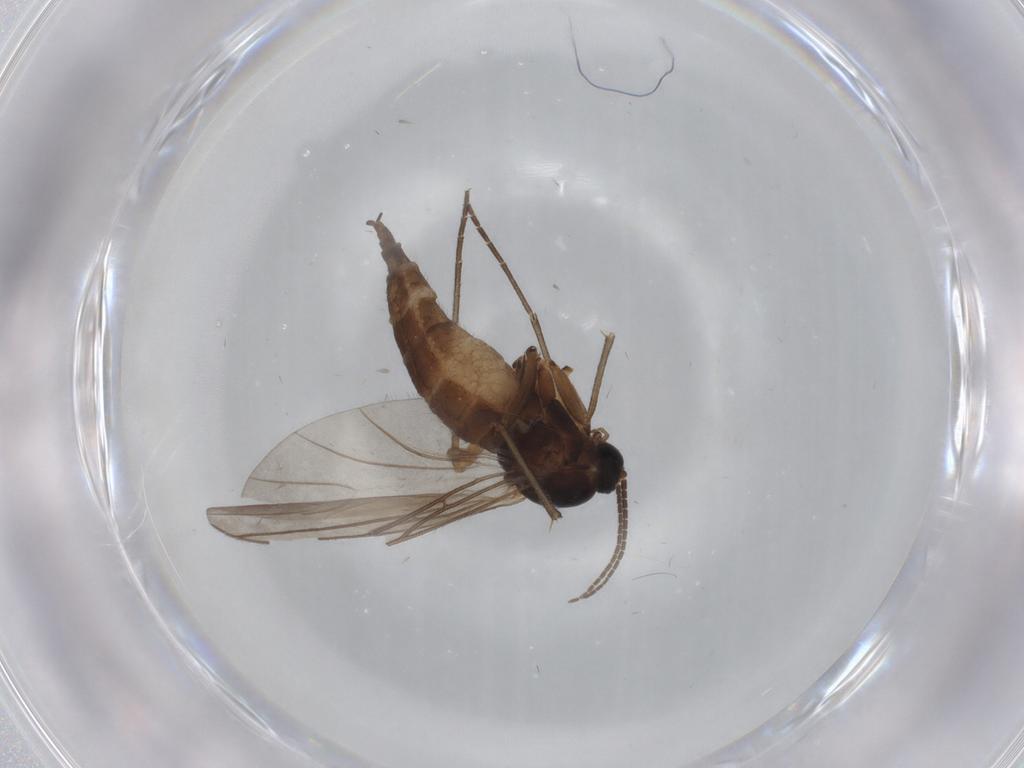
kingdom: Animalia
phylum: Arthropoda
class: Insecta
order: Diptera
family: Sciaridae
